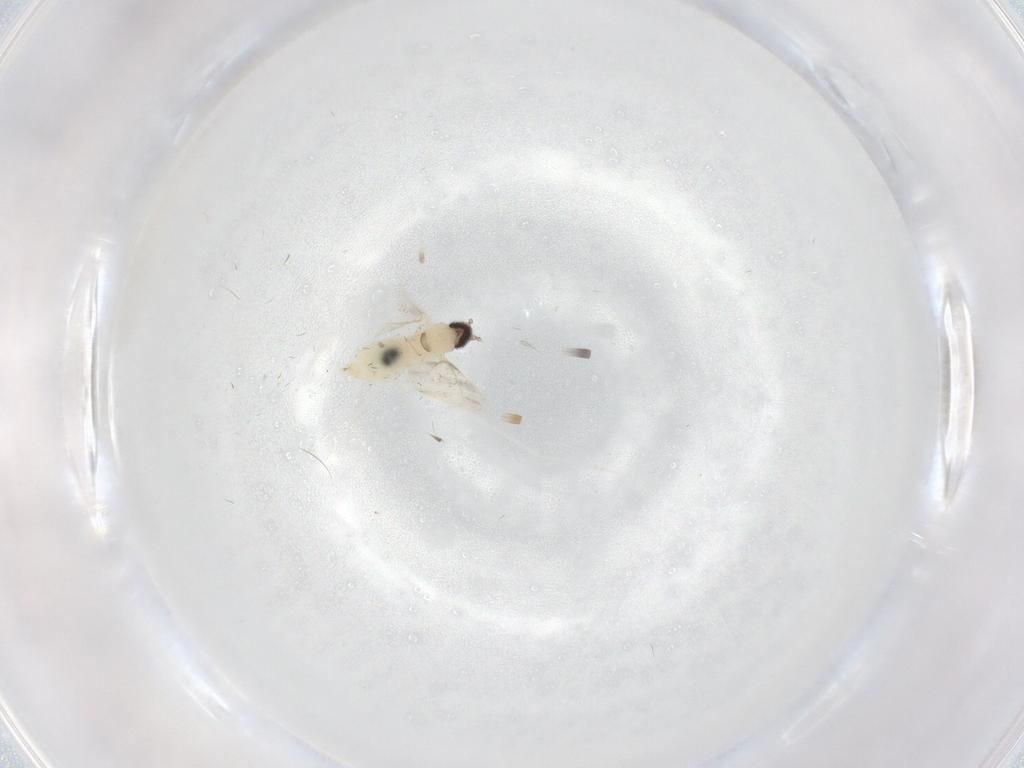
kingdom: Animalia
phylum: Arthropoda
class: Insecta
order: Diptera
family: Cecidomyiidae
